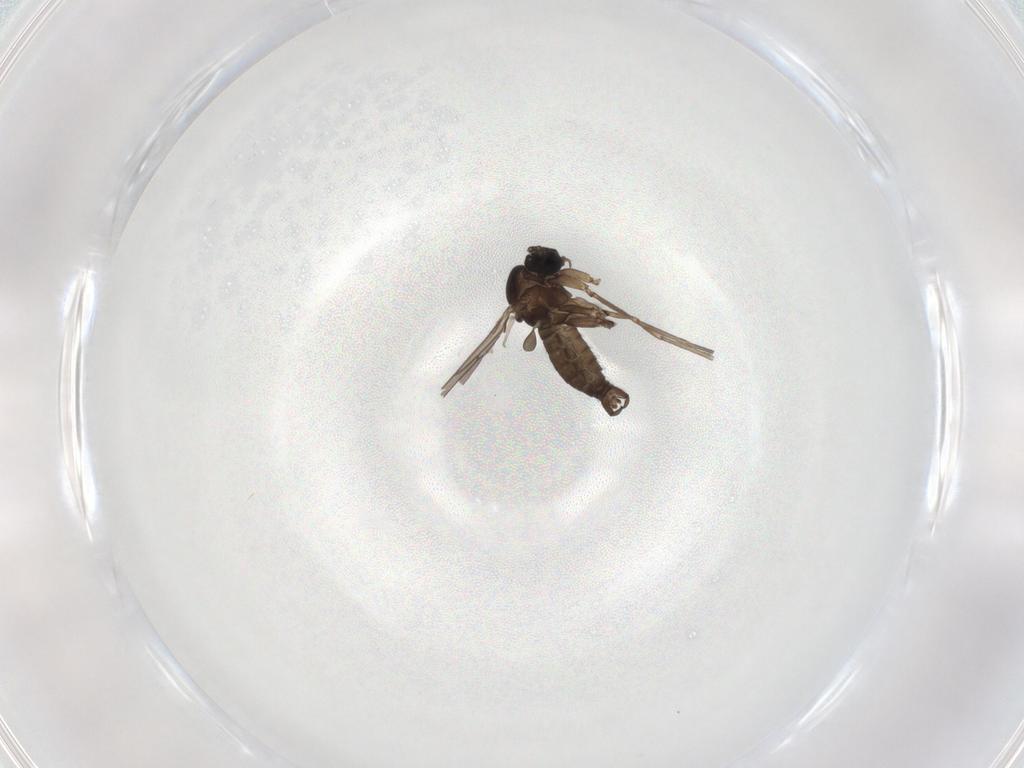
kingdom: Animalia
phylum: Arthropoda
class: Insecta
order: Diptera
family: Sciaridae
